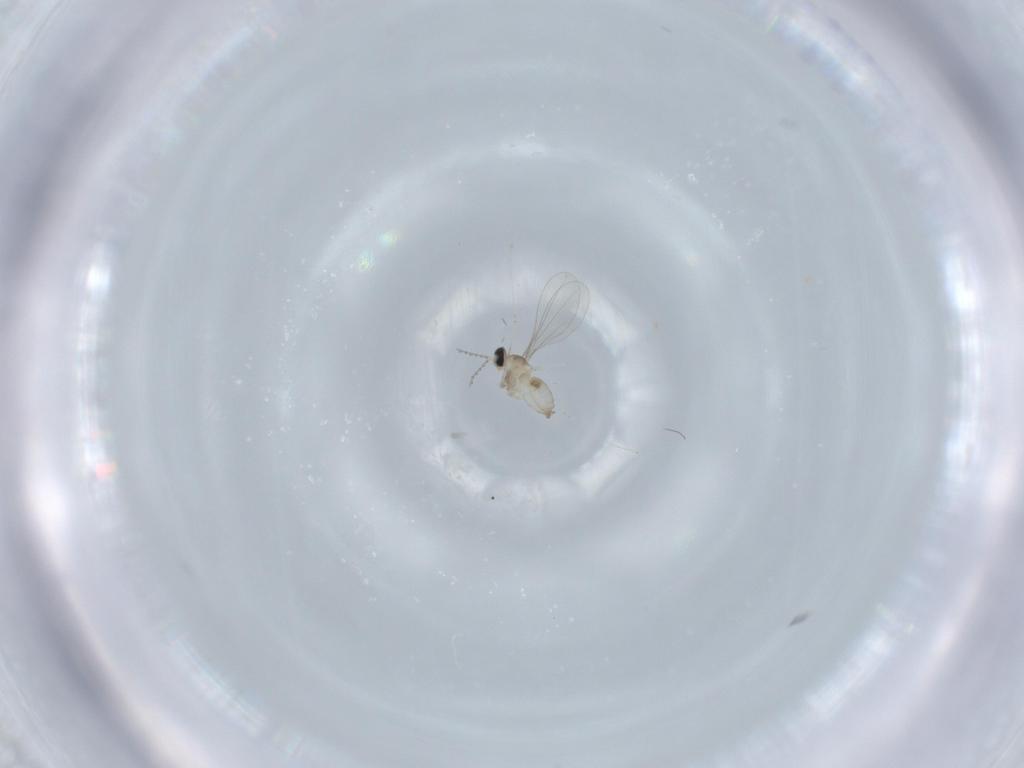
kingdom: Animalia
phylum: Arthropoda
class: Insecta
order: Diptera
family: Cecidomyiidae
